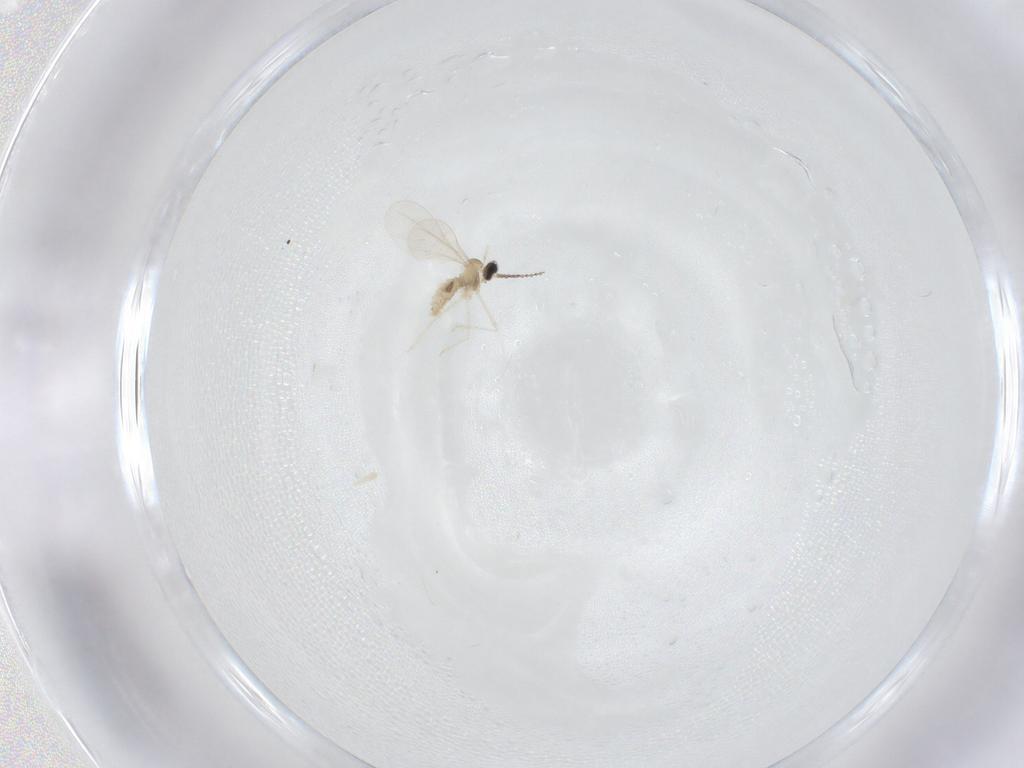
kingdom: Animalia
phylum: Arthropoda
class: Insecta
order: Diptera
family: Cecidomyiidae
